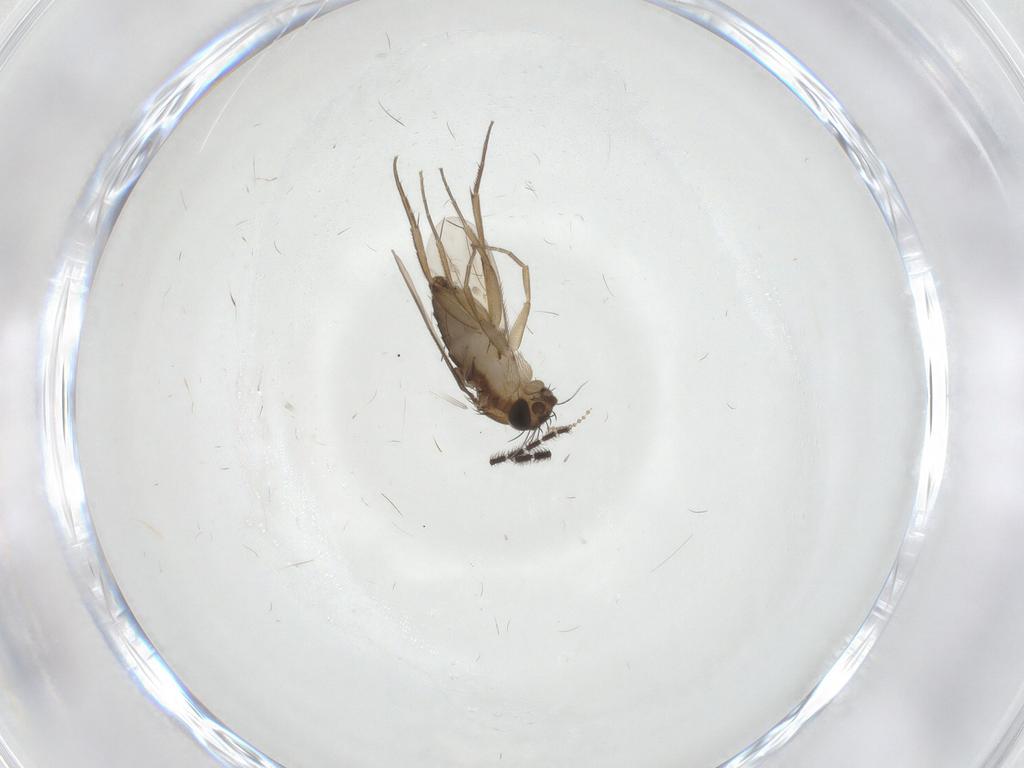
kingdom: Animalia
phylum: Arthropoda
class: Insecta
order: Diptera
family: Phoridae
